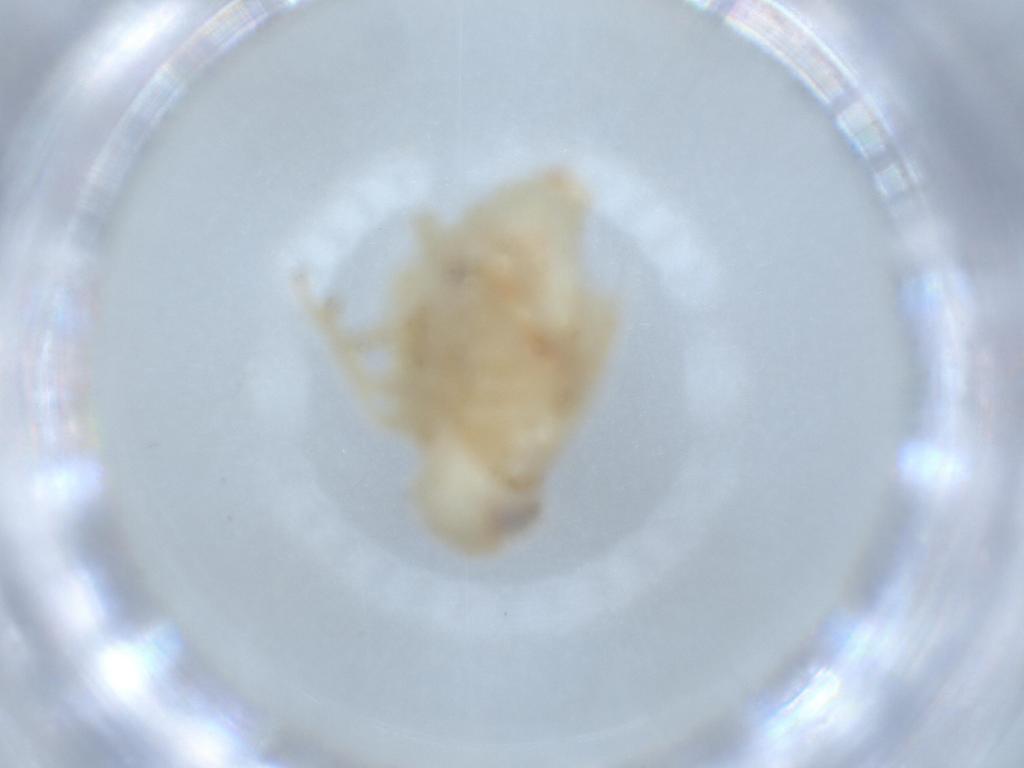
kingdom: Animalia
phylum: Arthropoda
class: Insecta
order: Hemiptera
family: Nogodinidae
